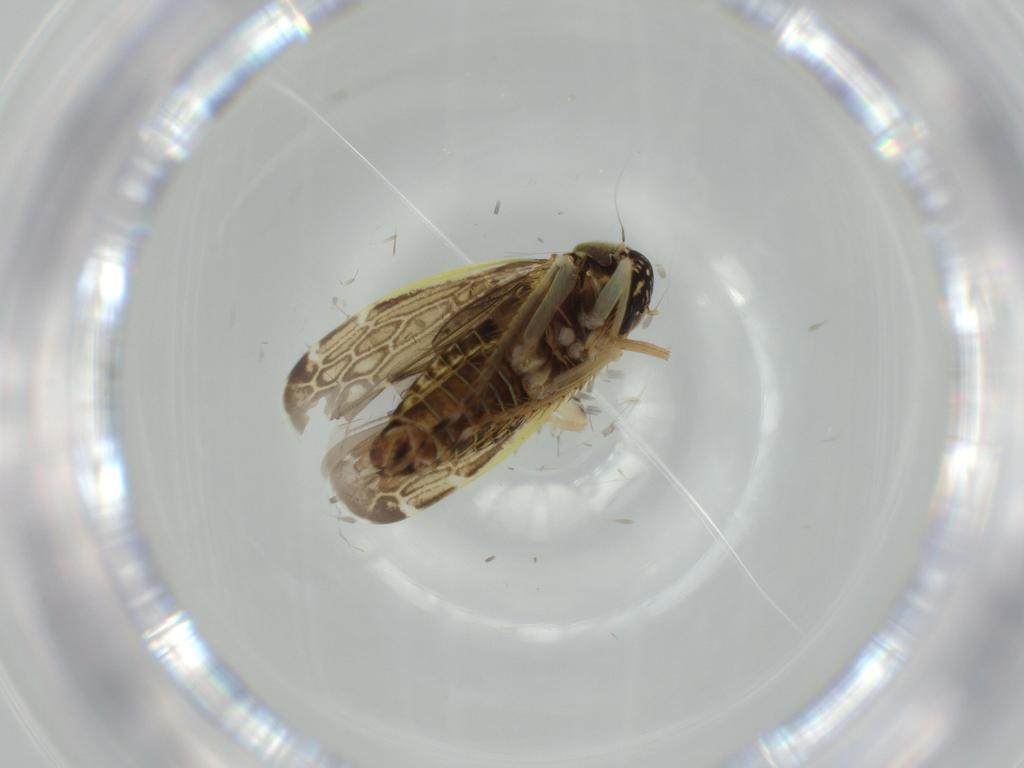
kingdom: Animalia
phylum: Arthropoda
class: Insecta
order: Hemiptera
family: Cicadellidae
